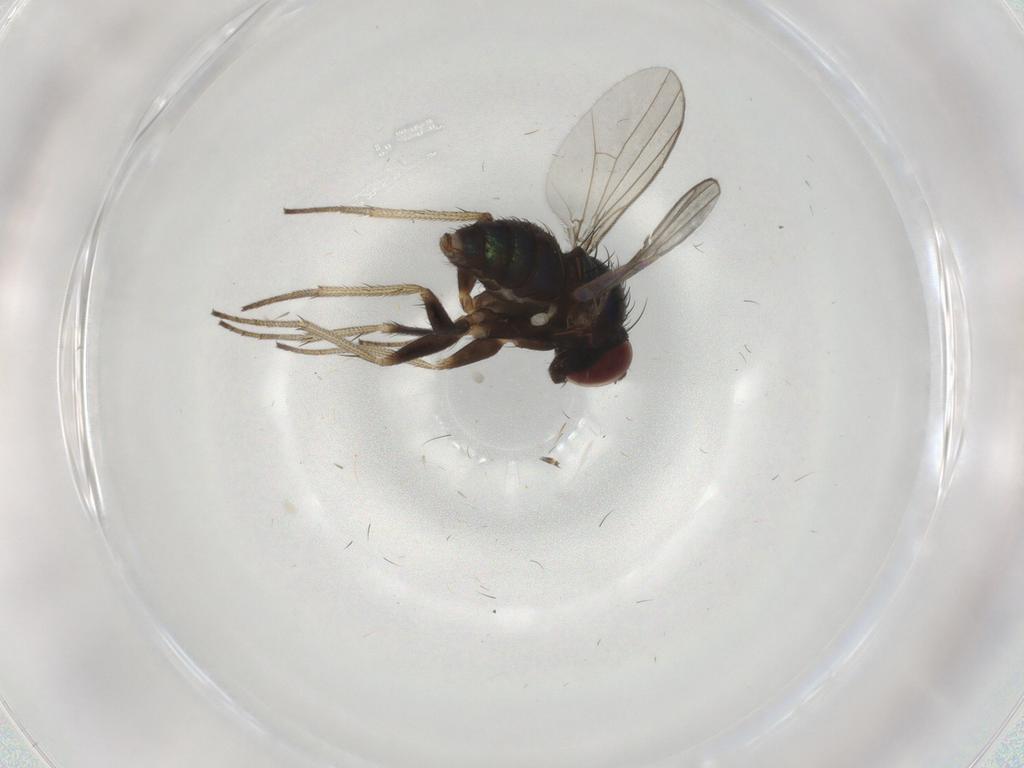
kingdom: Animalia
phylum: Arthropoda
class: Insecta
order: Diptera
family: Dolichopodidae
